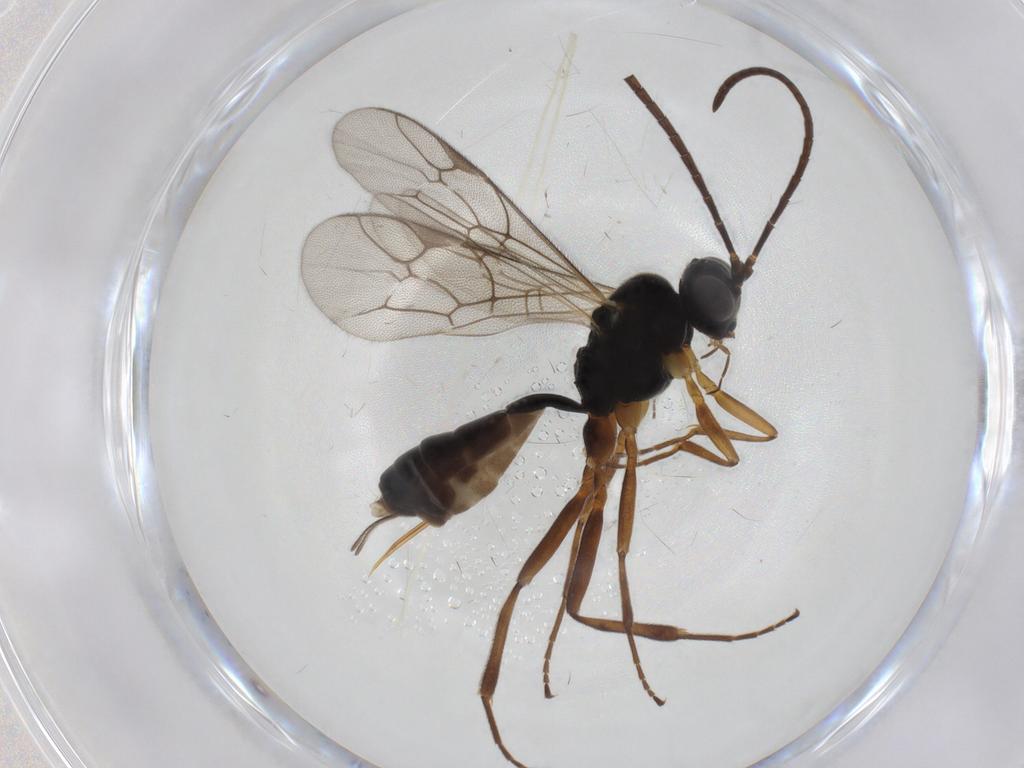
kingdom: Animalia
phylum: Arthropoda
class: Insecta
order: Hymenoptera
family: Ichneumonidae
